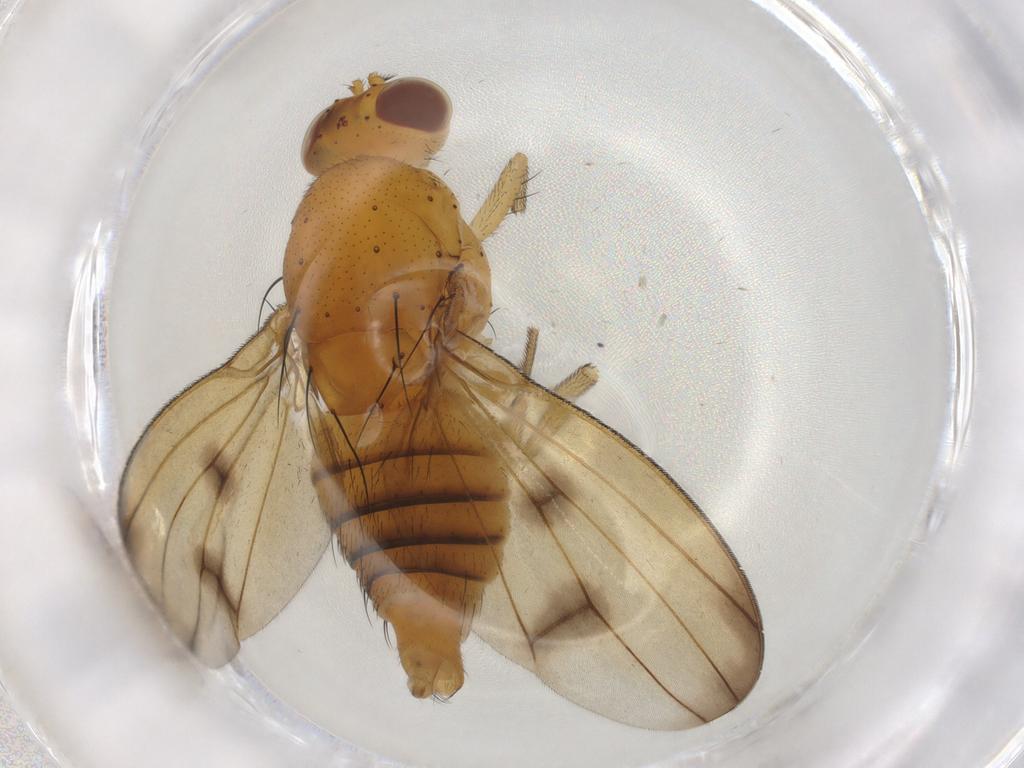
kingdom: Animalia
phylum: Arthropoda
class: Insecta
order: Diptera
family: Lauxaniidae
